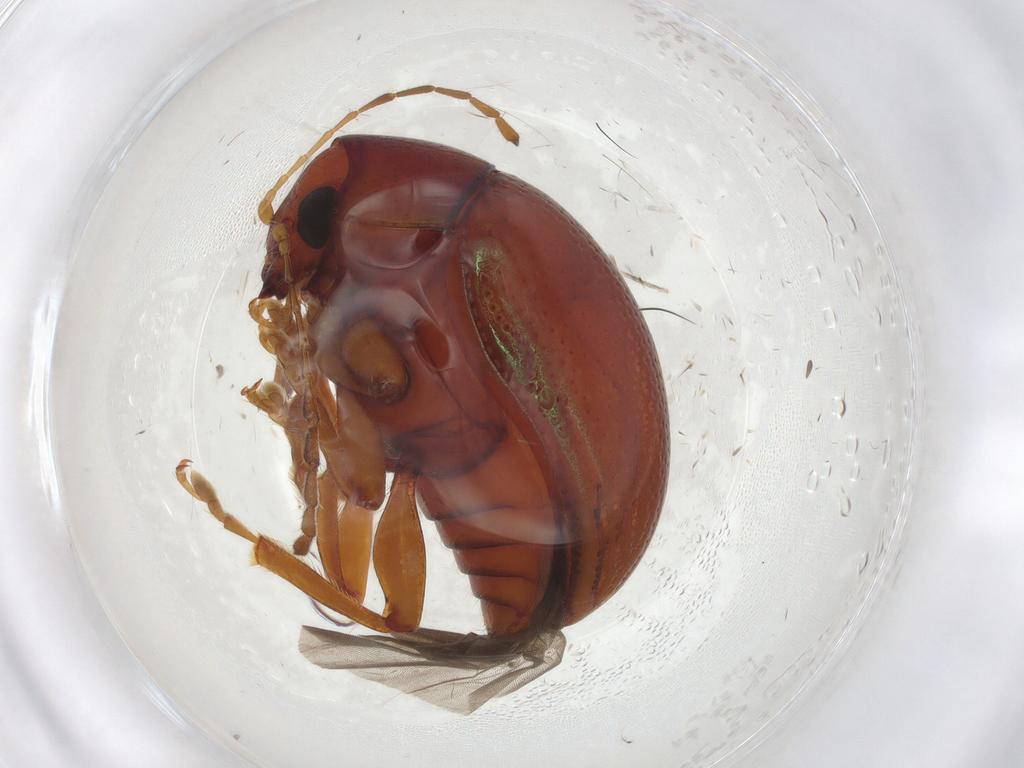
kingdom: Animalia
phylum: Arthropoda
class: Insecta
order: Coleoptera
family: Chrysomelidae
